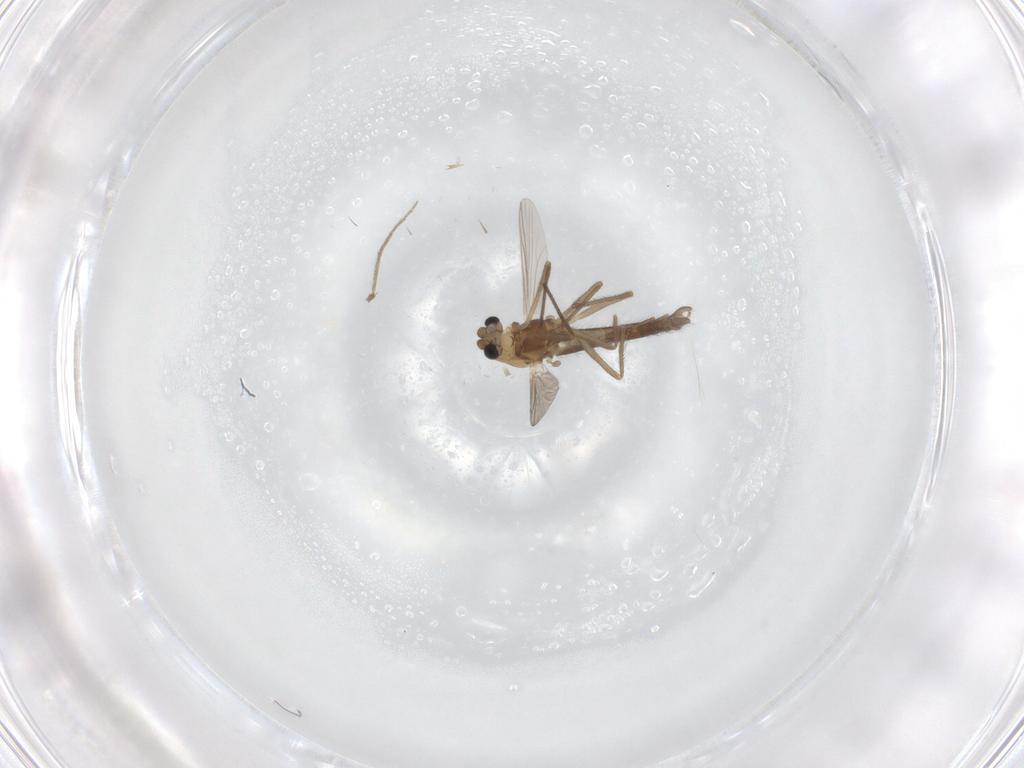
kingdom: Animalia
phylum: Arthropoda
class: Insecta
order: Diptera
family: Chironomidae
